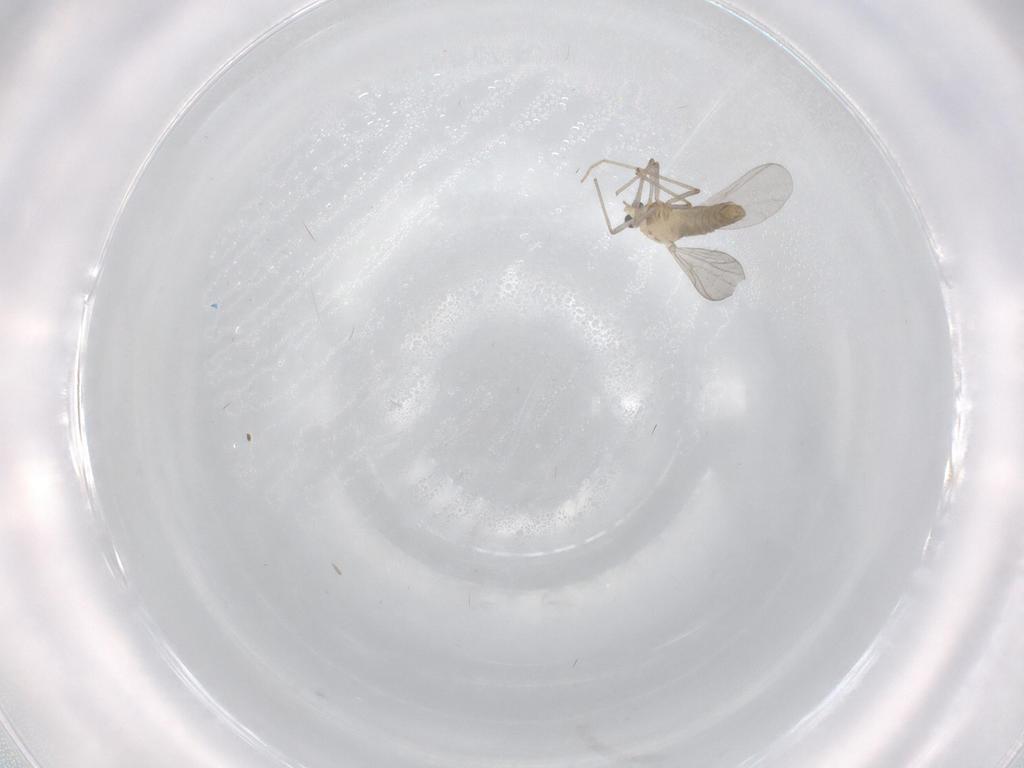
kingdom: Animalia
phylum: Arthropoda
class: Insecta
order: Diptera
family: Chironomidae
